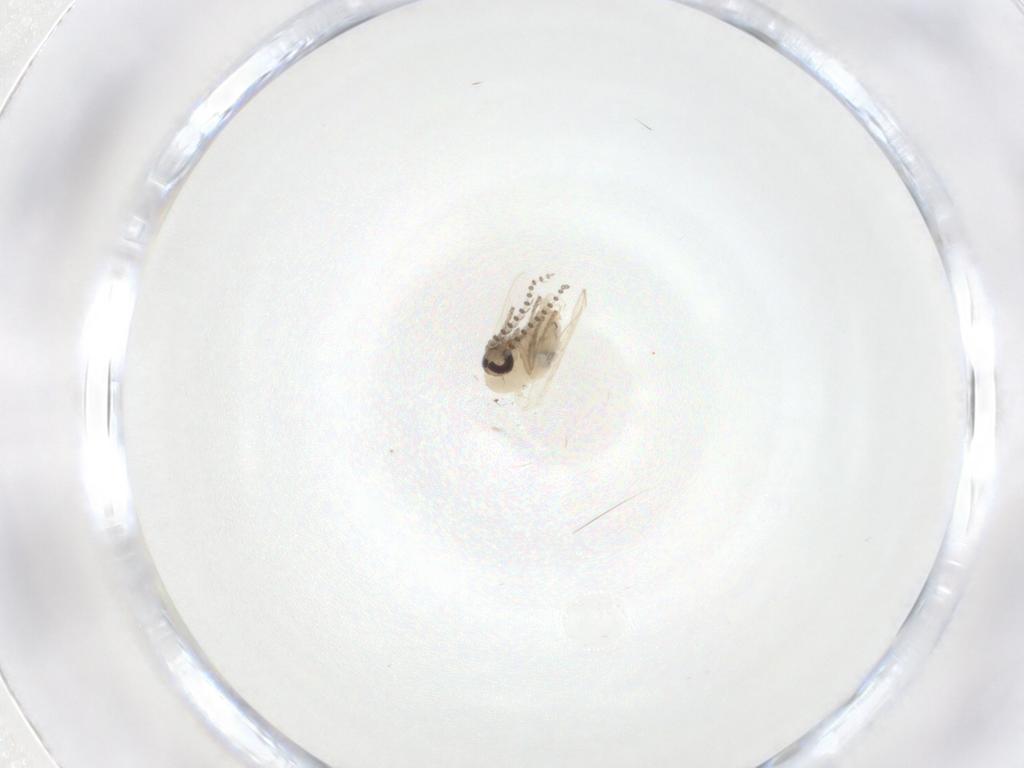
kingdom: Animalia
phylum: Arthropoda
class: Insecta
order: Diptera
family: Psychodidae
